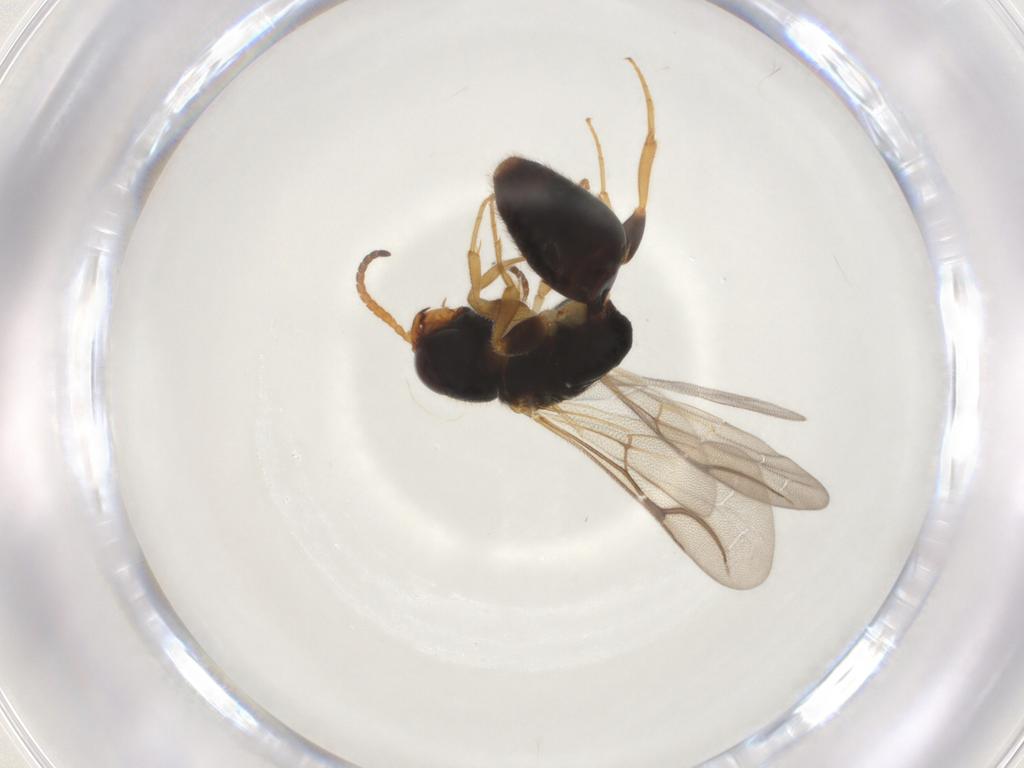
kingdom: Animalia
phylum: Arthropoda
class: Insecta
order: Hymenoptera
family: Bethylidae
